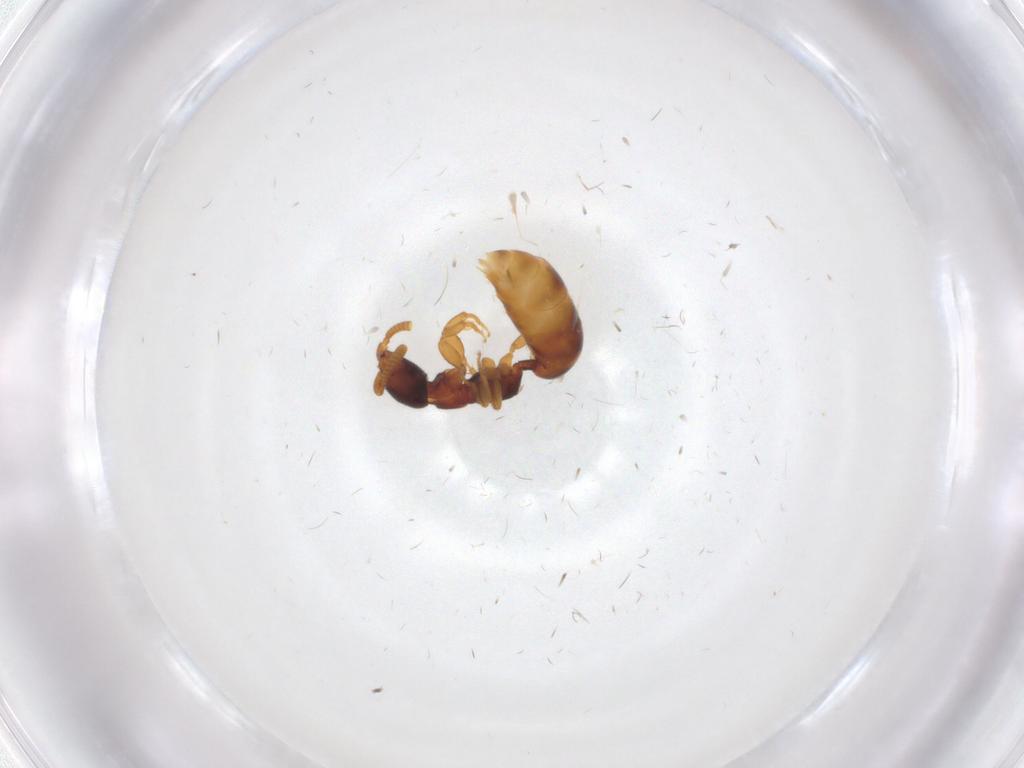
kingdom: Animalia
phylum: Arthropoda
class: Insecta
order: Hymenoptera
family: Bethylidae
